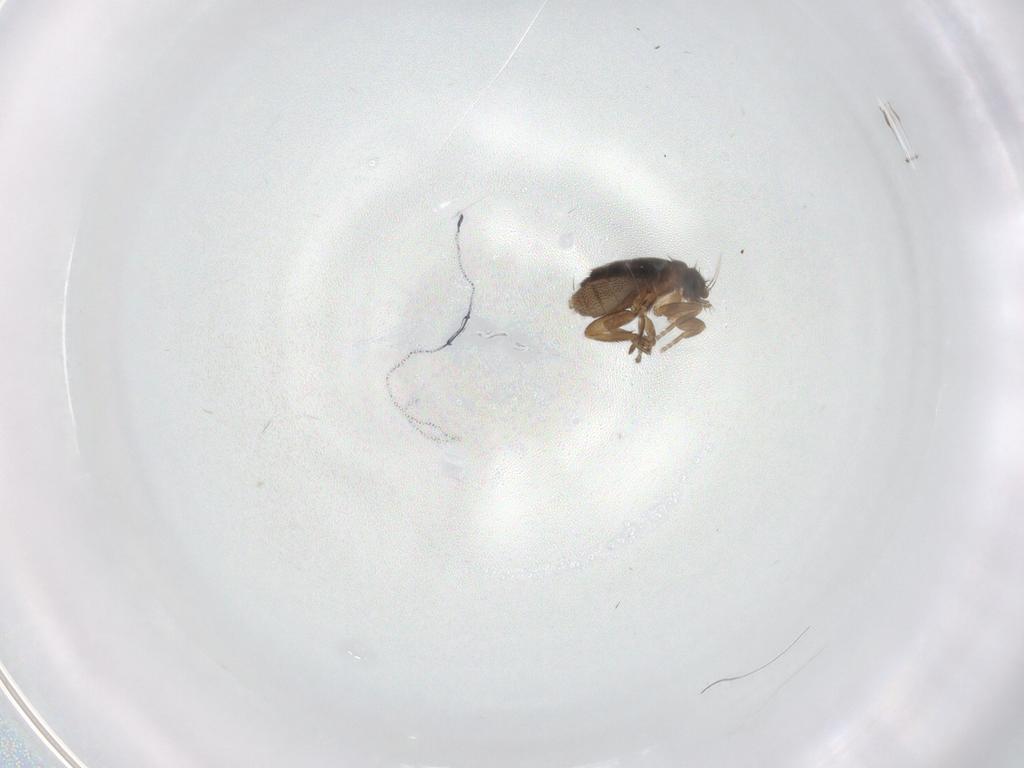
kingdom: Animalia
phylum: Arthropoda
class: Insecta
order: Diptera
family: Phoridae
